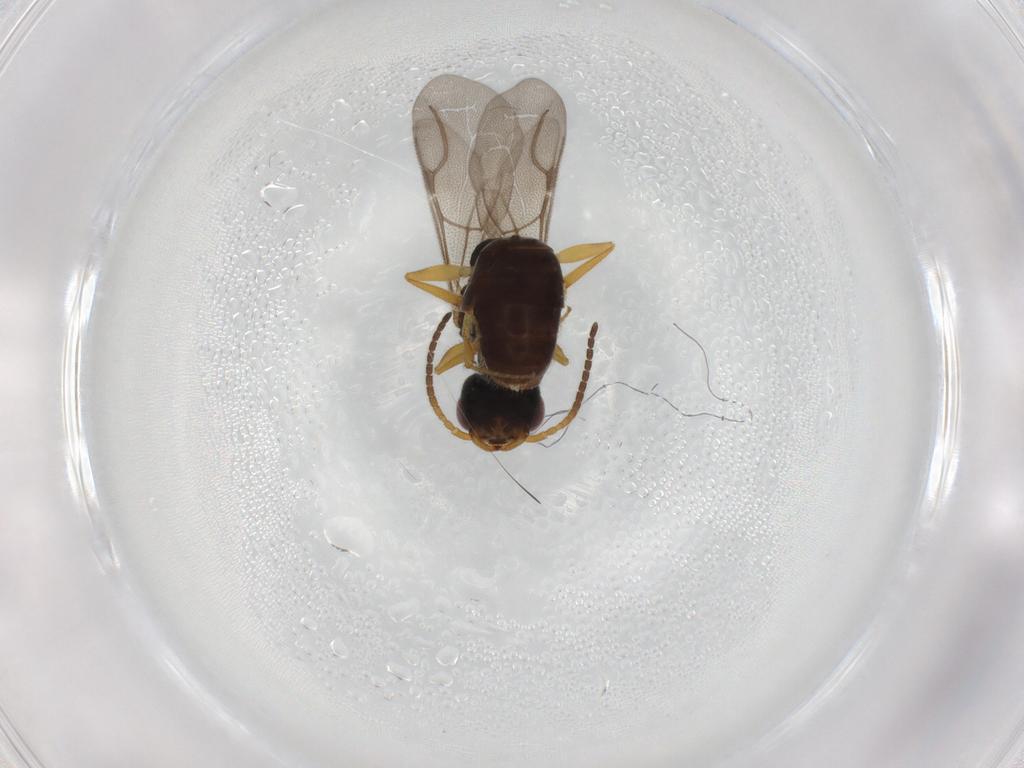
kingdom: Animalia
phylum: Arthropoda
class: Insecta
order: Hymenoptera
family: Bethylidae
